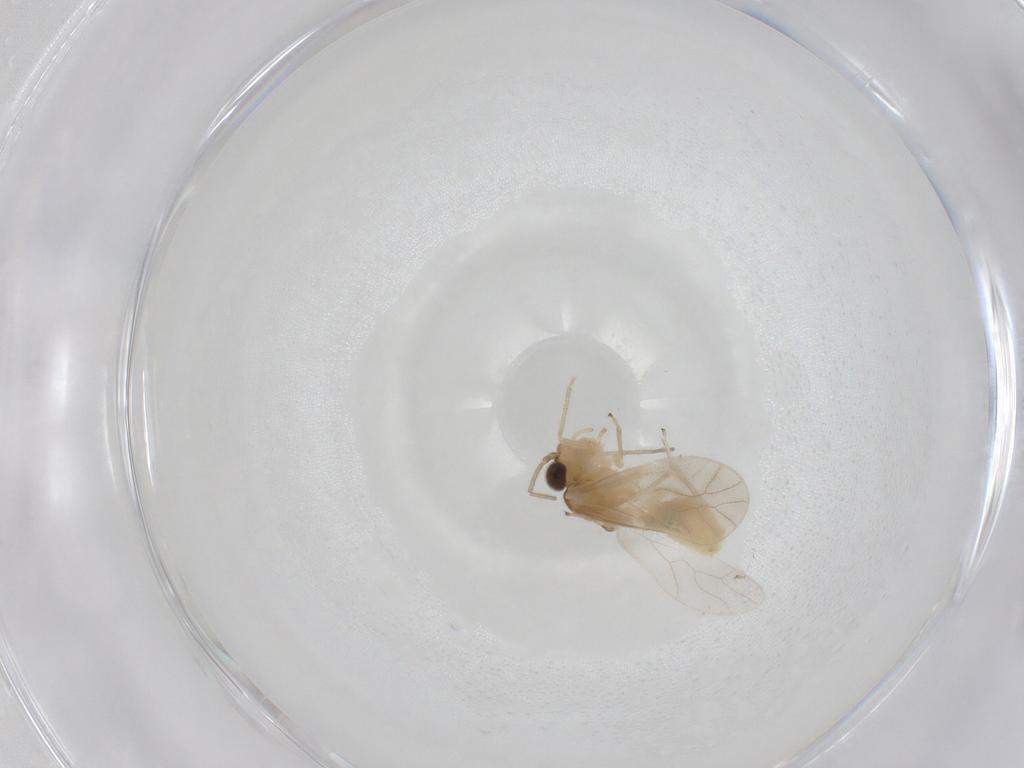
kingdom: Animalia
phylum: Arthropoda
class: Insecta
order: Psocodea
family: Caeciliusidae
